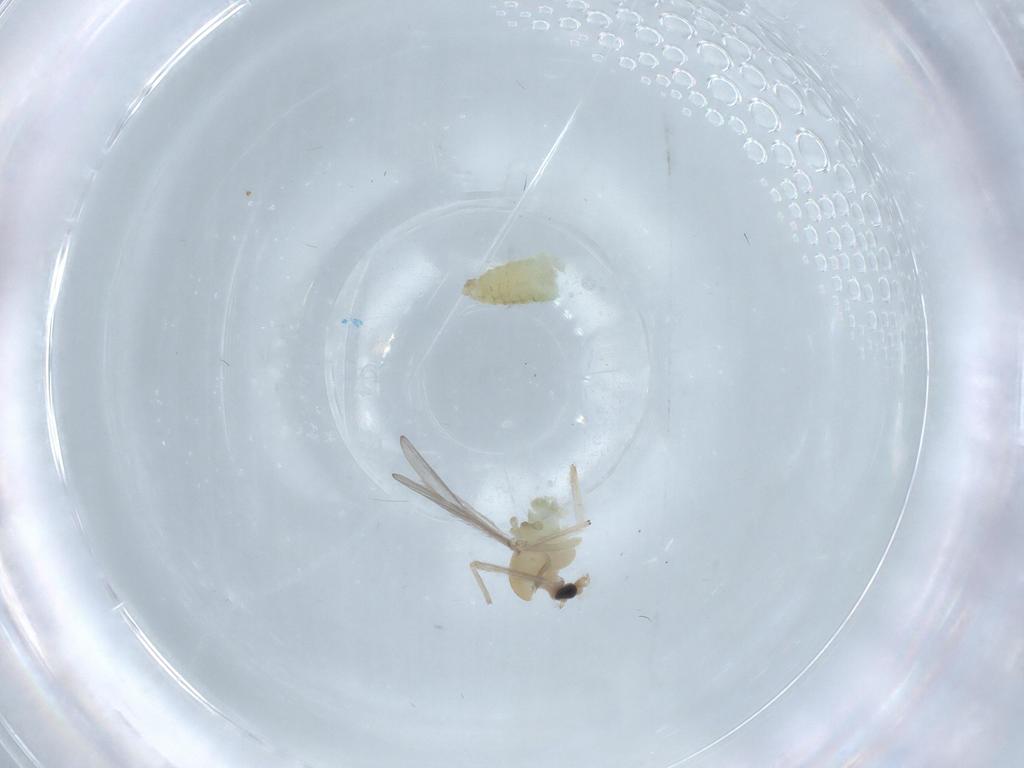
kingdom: Animalia
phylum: Arthropoda
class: Insecta
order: Diptera
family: Chironomidae
